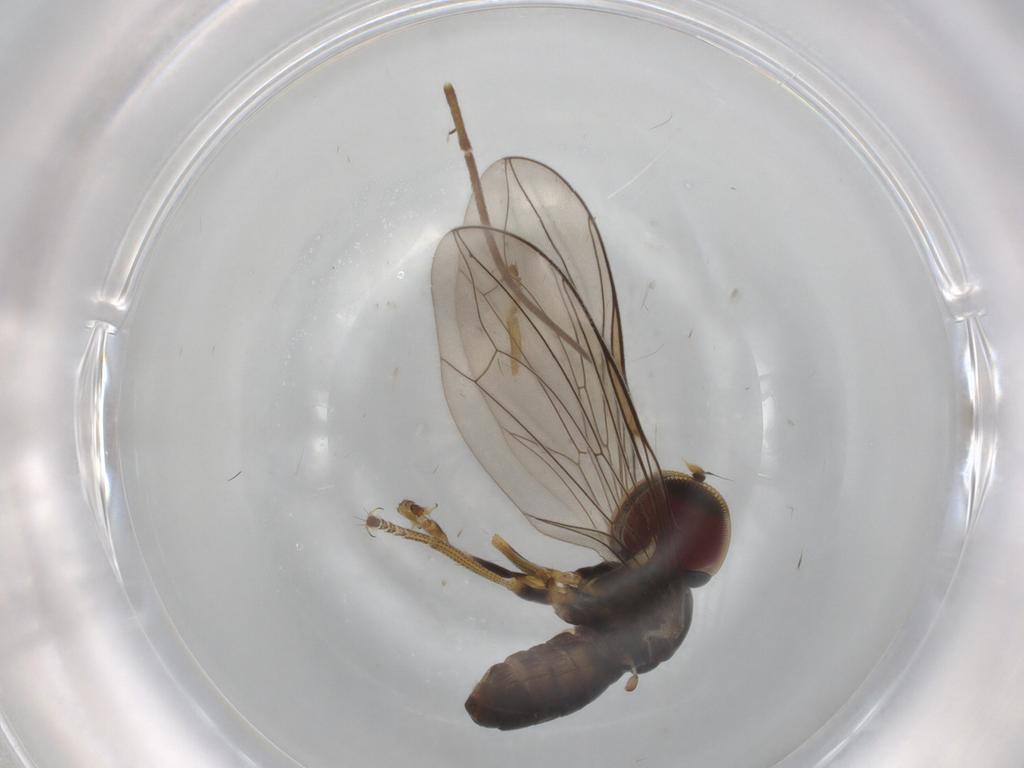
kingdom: Animalia
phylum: Arthropoda
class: Insecta
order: Diptera
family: Pipunculidae
